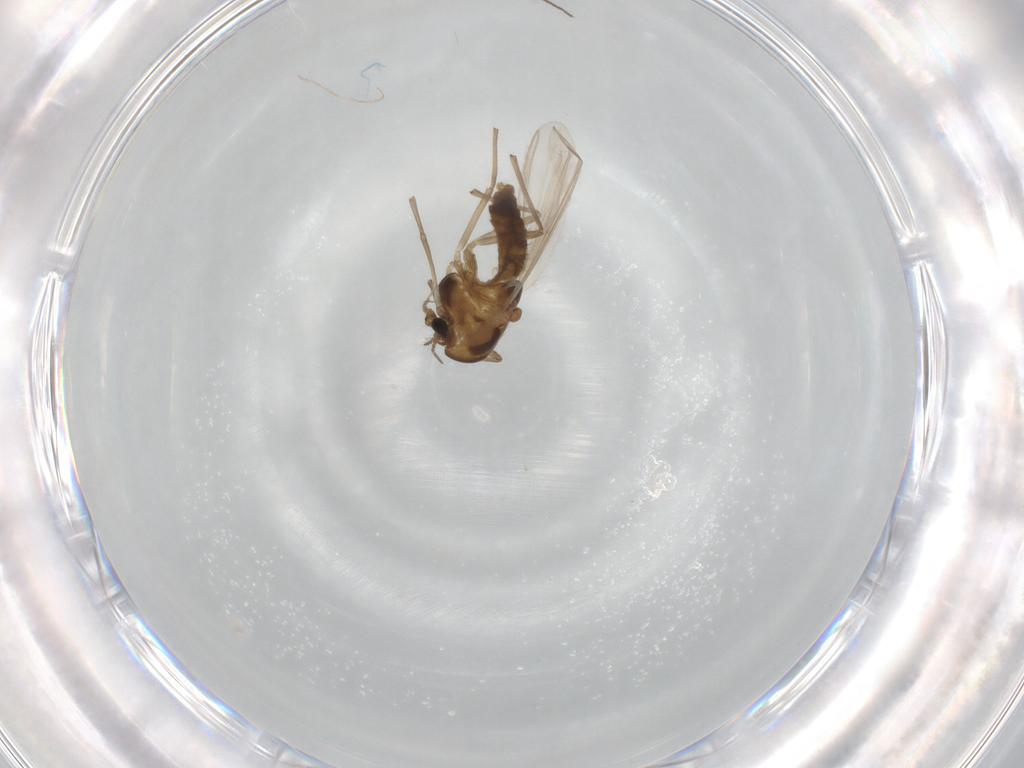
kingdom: Animalia
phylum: Arthropoda
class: Insecta
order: Diptera
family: Chironomidae
